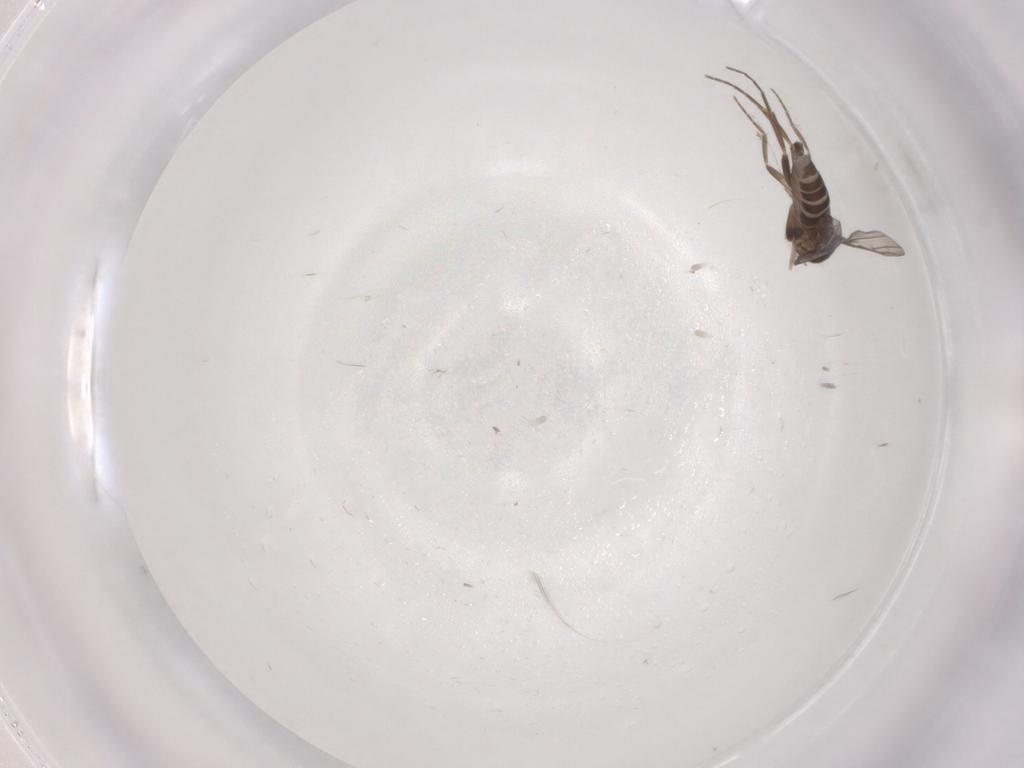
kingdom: Animalia
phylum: Arthropoda
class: Insecta
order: Diptera
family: Phoridae
